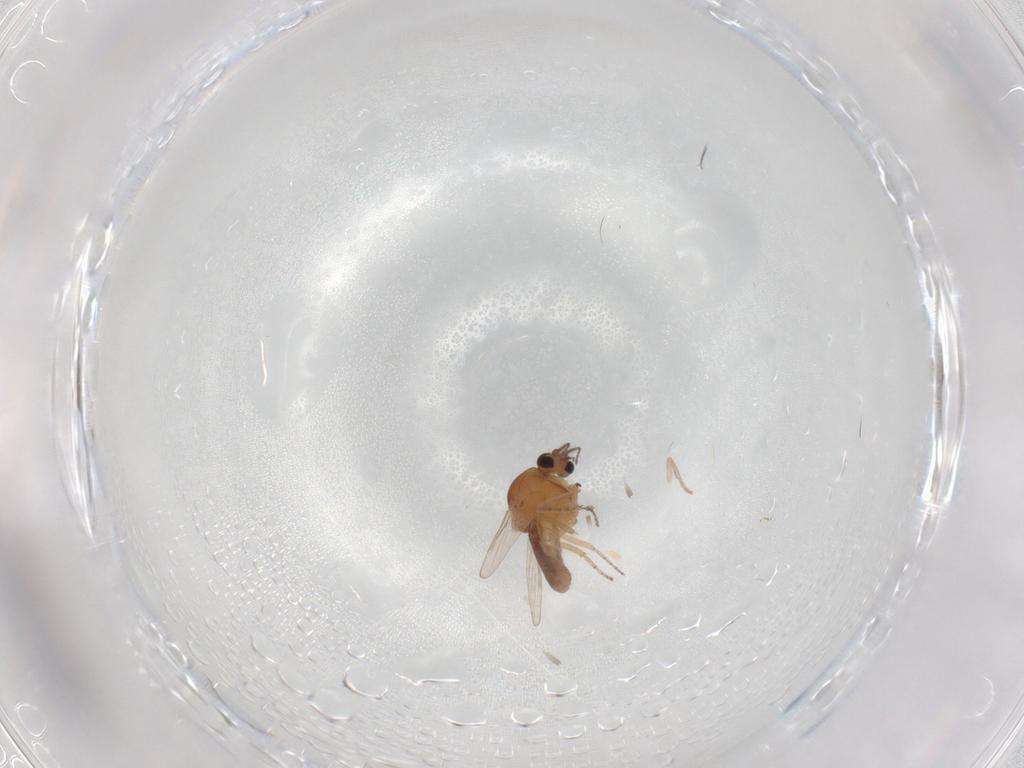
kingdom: Animalia
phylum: Arthropoda
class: Insecta
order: Diptera
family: Ceratopogonidae
